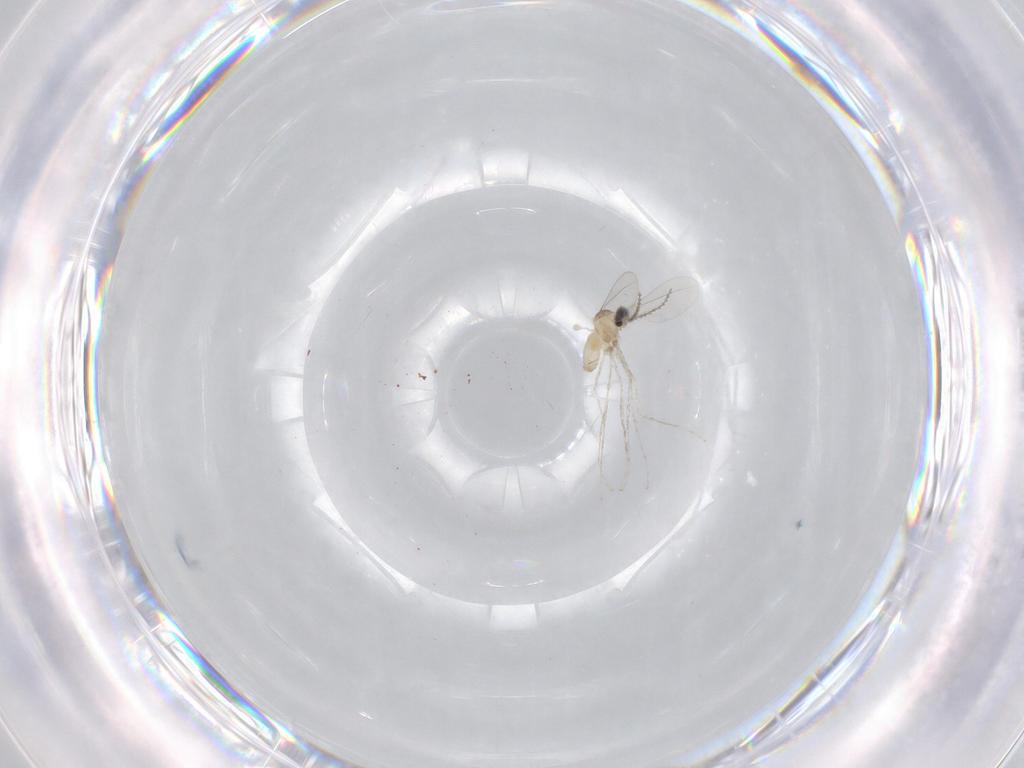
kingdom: Animalia
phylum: Arthropoda
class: Insecta
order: Diptera
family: Cecidomyiidae
